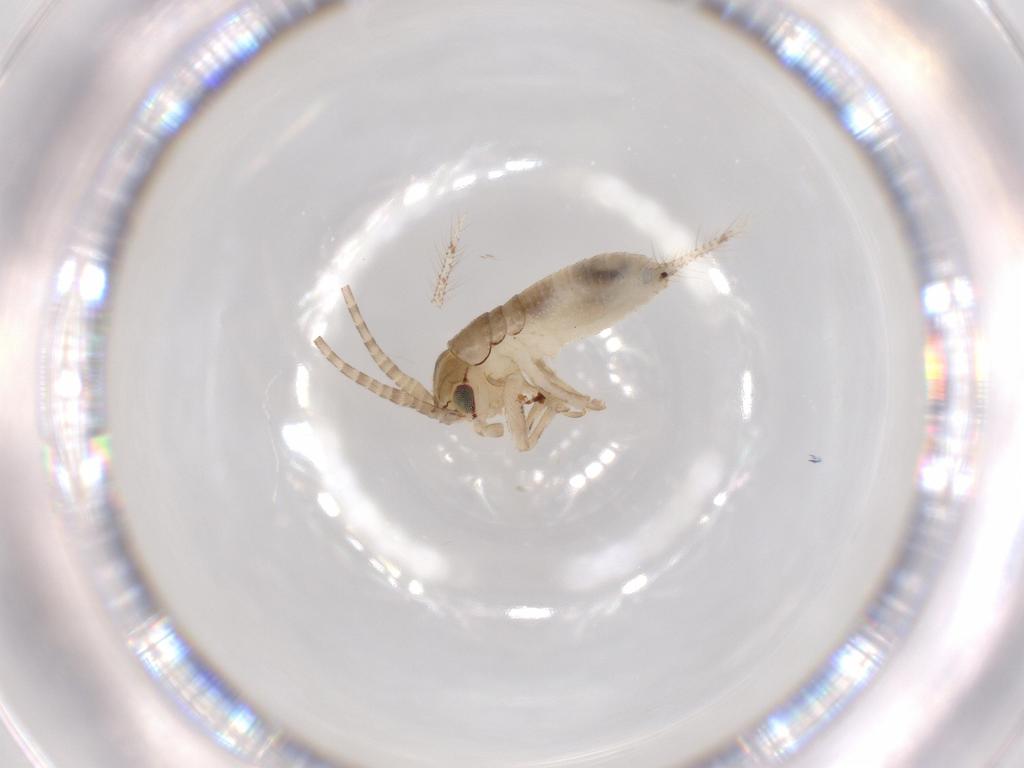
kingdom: Animalia
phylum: Arthropoda
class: Insecta
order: Orthoptera
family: Gryllidae
